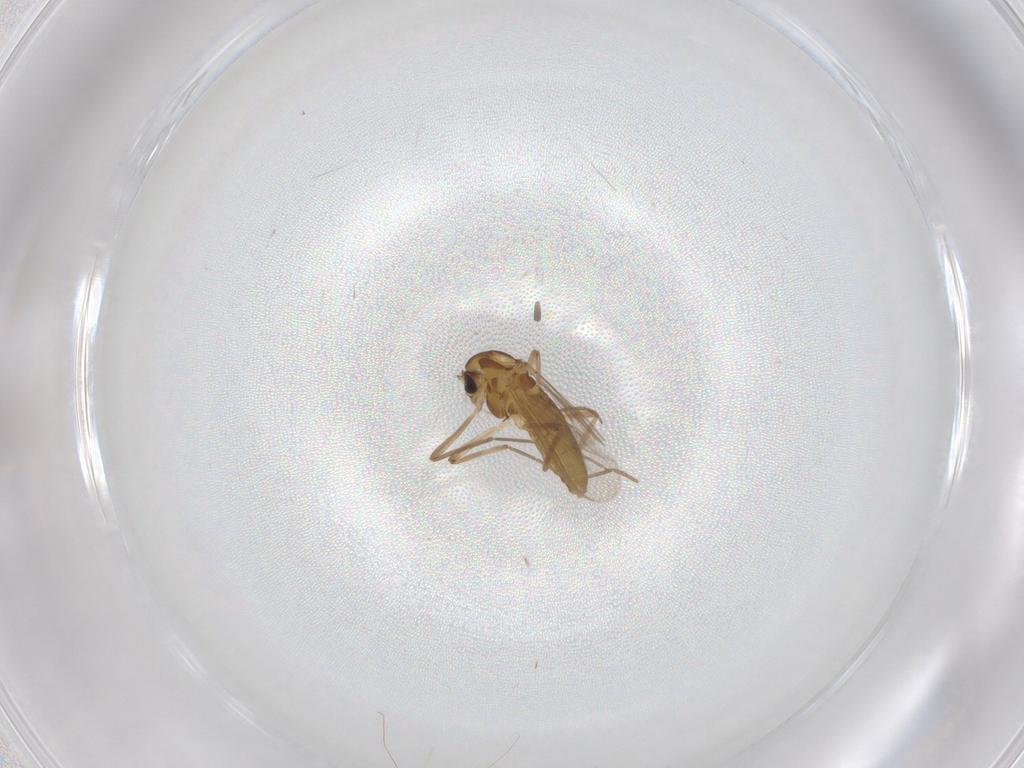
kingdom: Animalia
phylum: Arthropoda
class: Insecta
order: Diptera
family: Chironomidae
